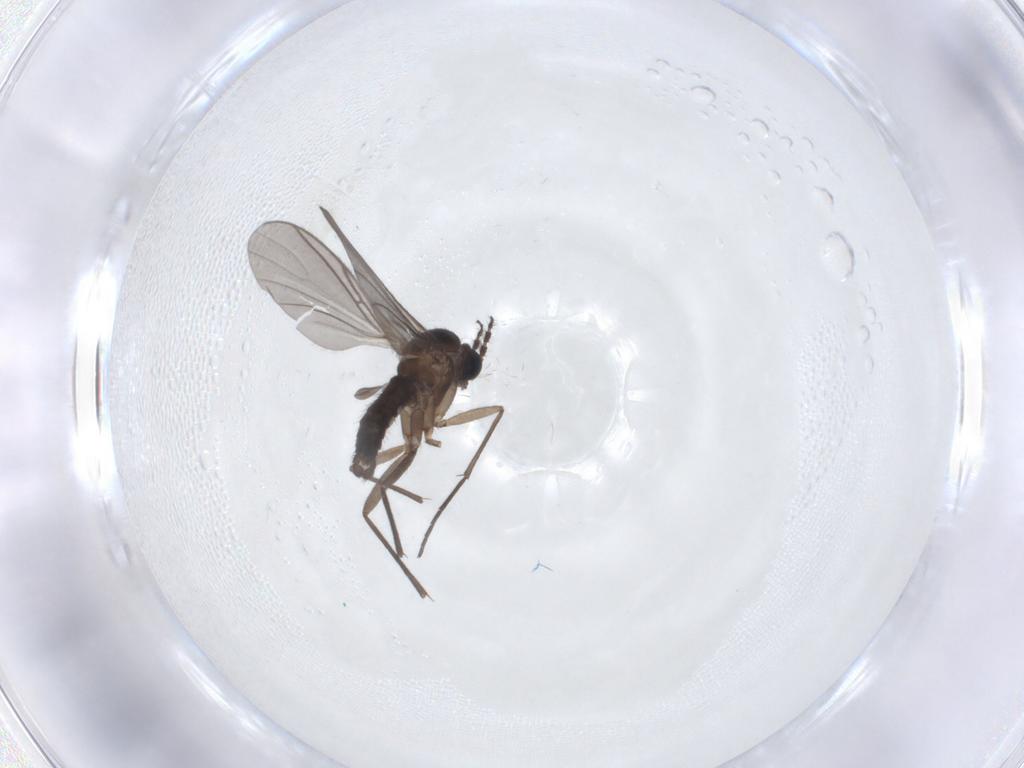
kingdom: Animalia
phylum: Arthropoda
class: Insecta
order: Diptera
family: Sciaridae
